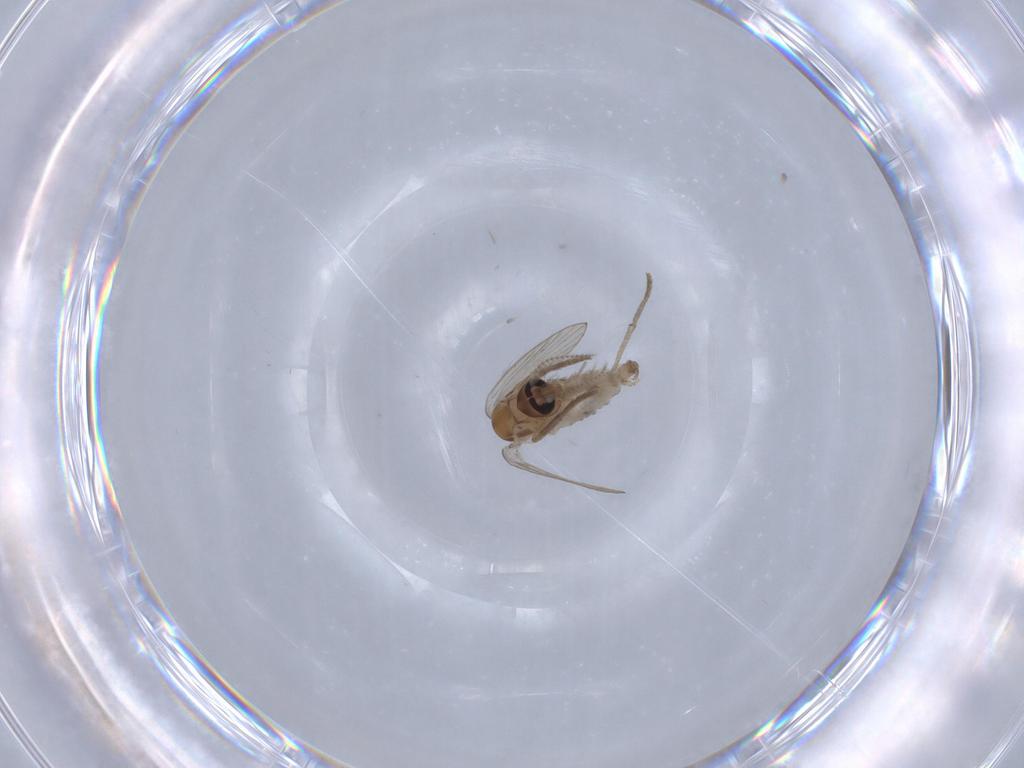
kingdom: Animalia
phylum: Arthropoda
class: Insecta
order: Diptera
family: Psychodidae
